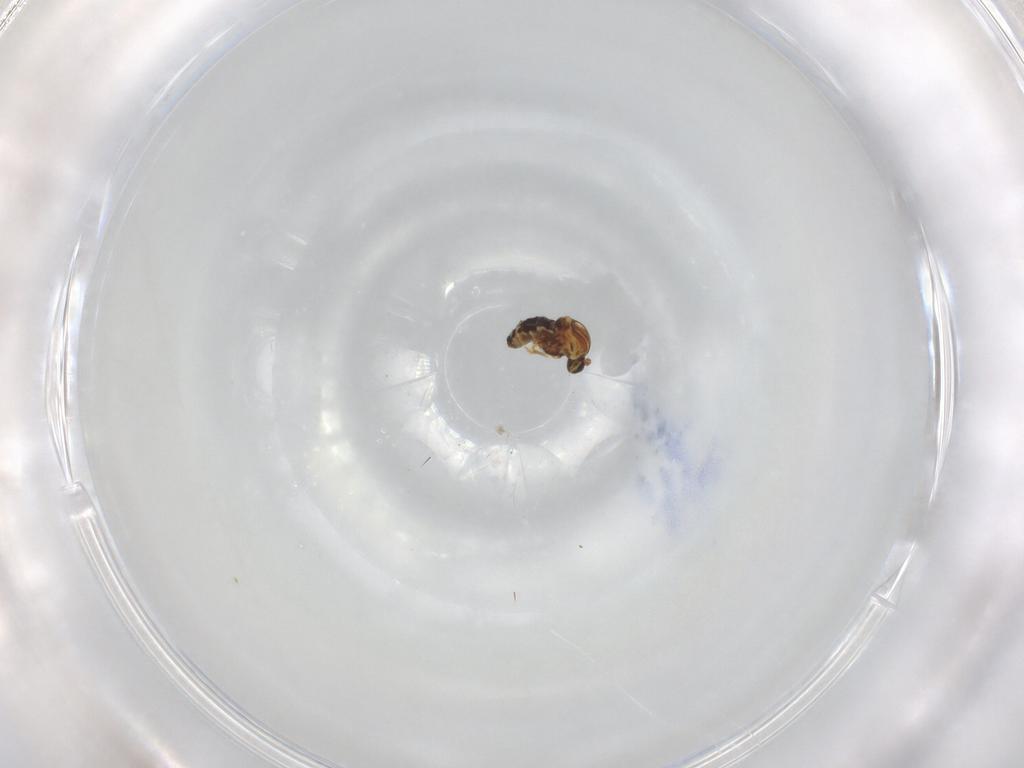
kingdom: Animalia
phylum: Arthropoda
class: Insecta
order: Diptera
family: Ceratopogonidae
